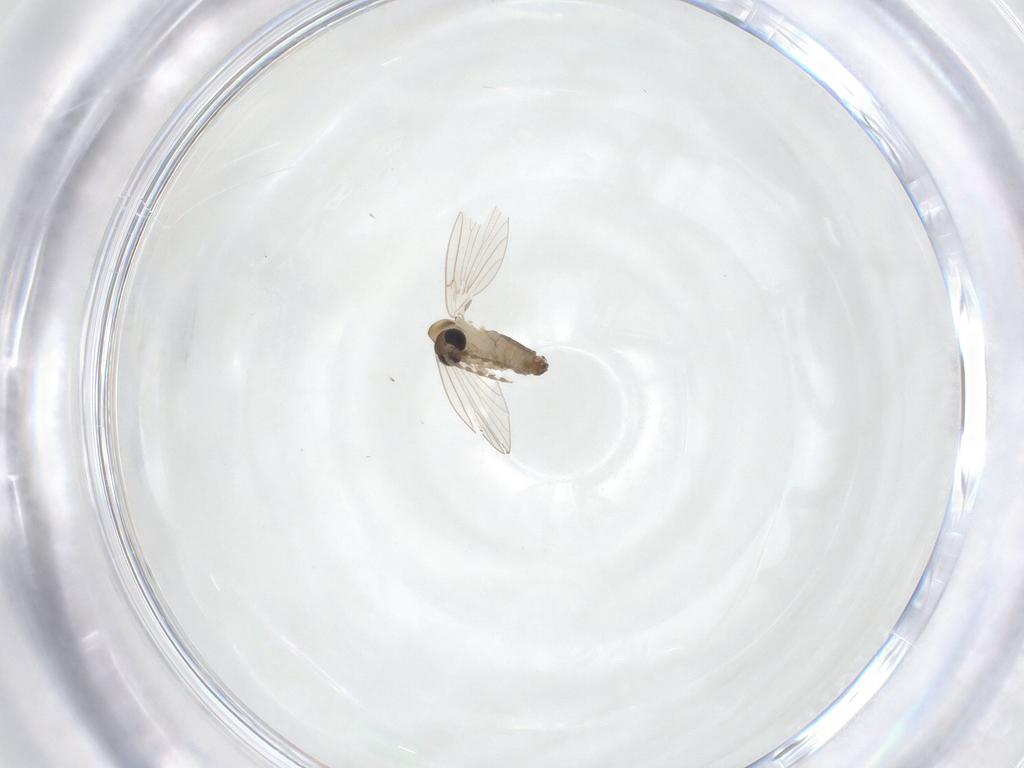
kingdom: Animalia
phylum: Arthropoda
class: Insecta
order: Diptera
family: Psychodidae
